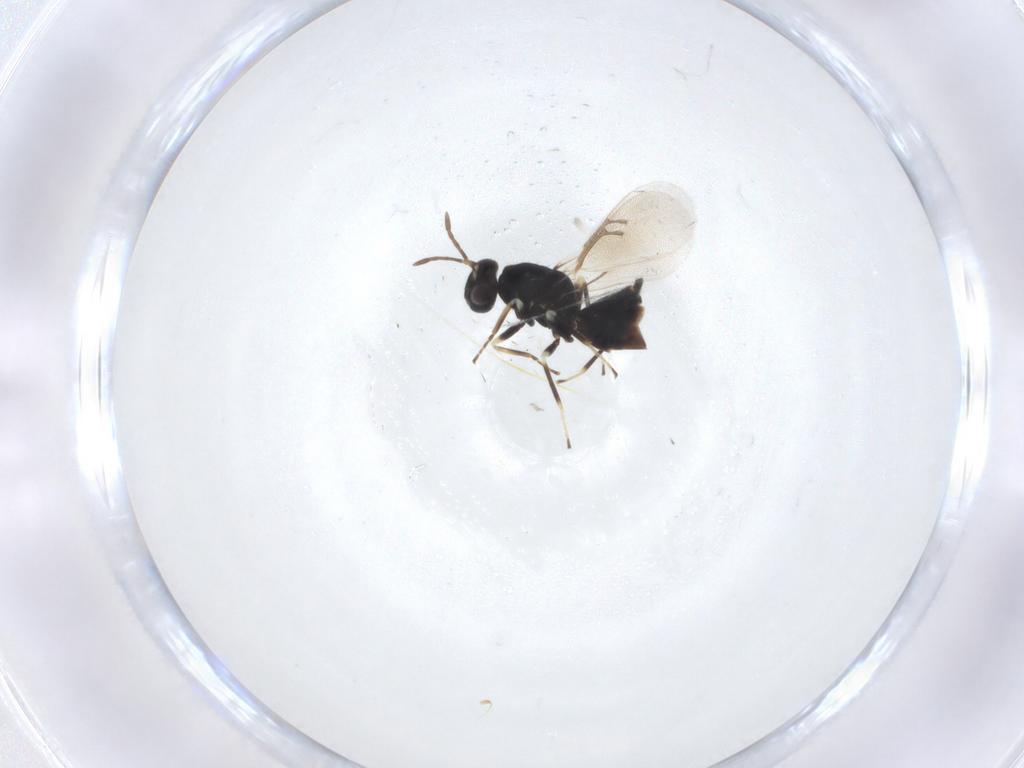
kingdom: Animalia
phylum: Arthropoda
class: Insecta
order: Hymenoptera
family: Eulophidae
